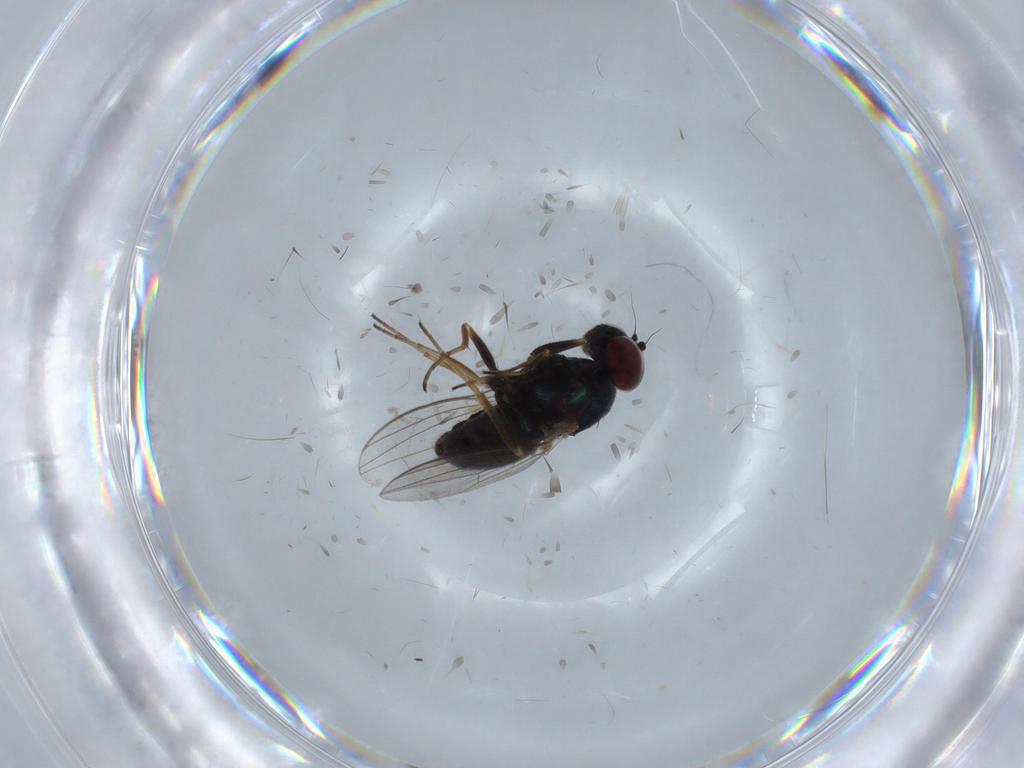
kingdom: Animalia
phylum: Arthropoda
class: Insecta
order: Diptera
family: Dolichopodidae
